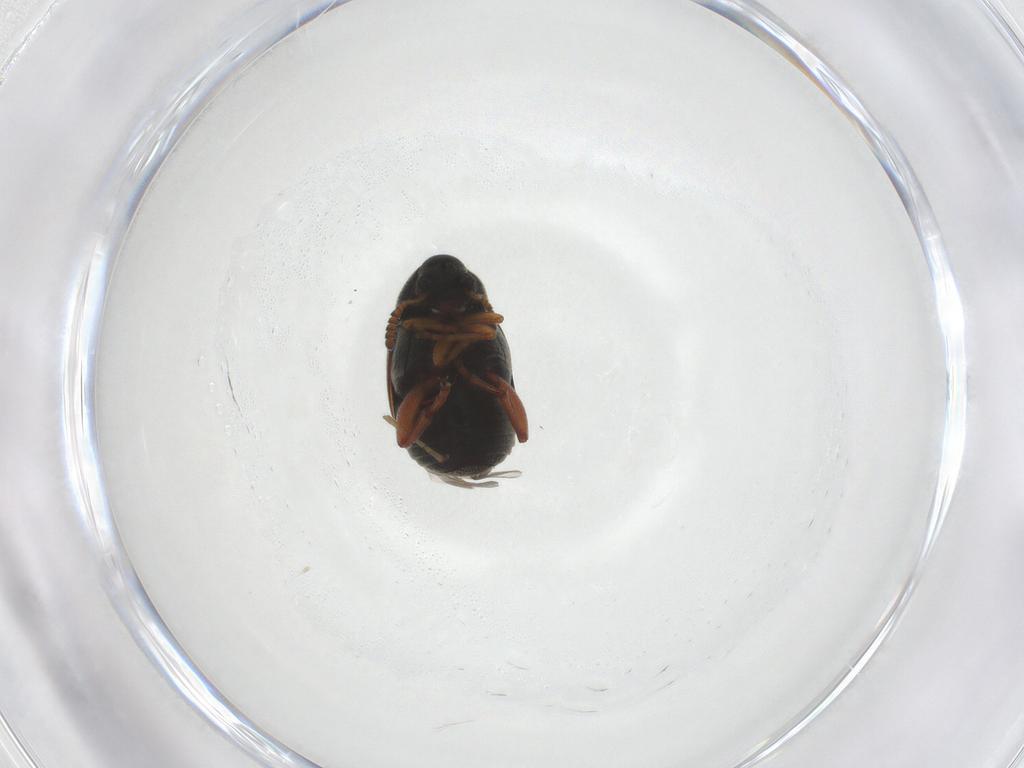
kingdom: Animalia
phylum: Arthropoda
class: Insecta
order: Coleoptera
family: Chrysomelidae
